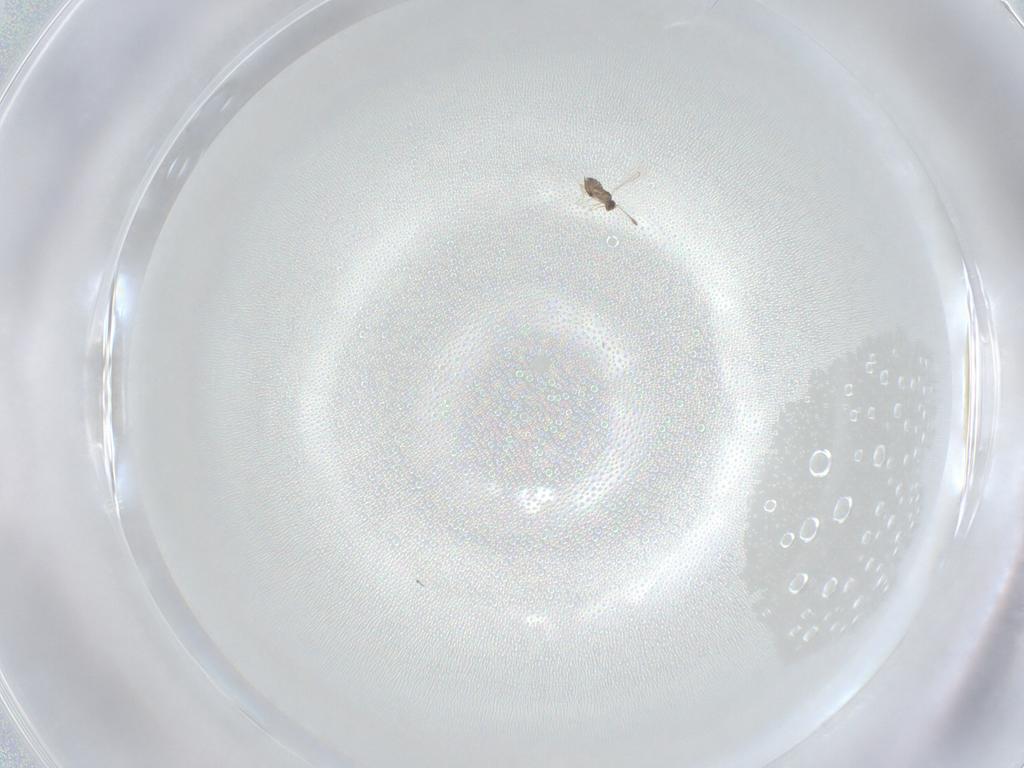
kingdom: Animalia
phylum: Arthropoda
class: Insecta
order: Hymenoptera
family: Mymaridae
